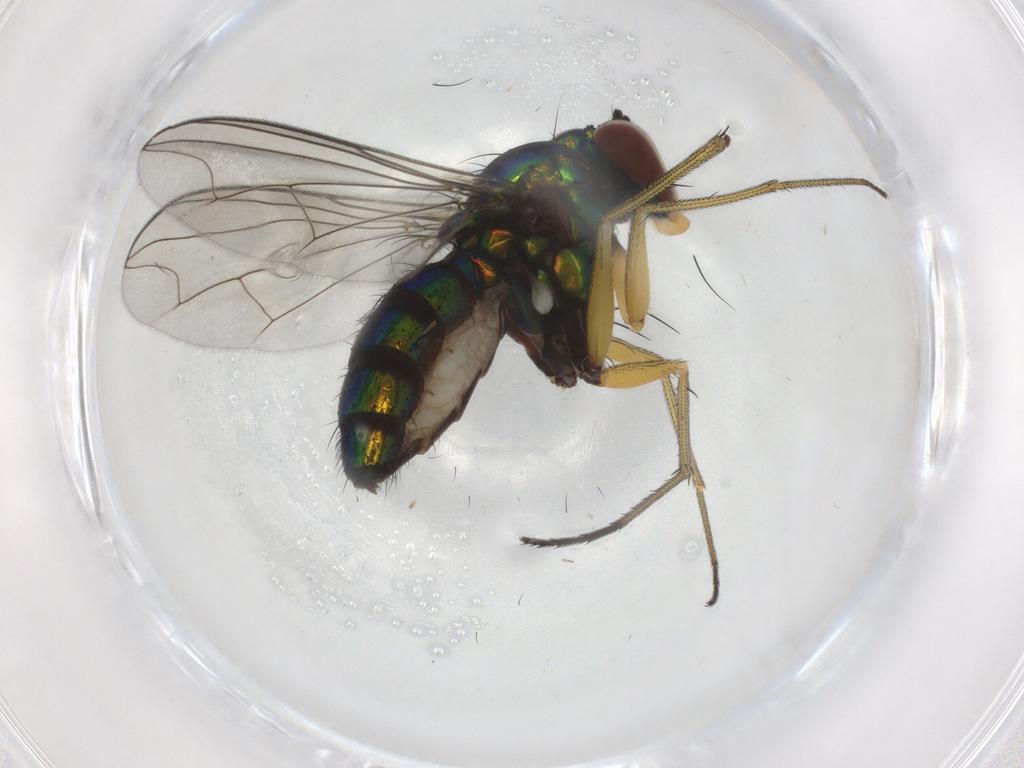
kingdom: Animalia
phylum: Arthropoda
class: Insecta
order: Diptera
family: Dolichopodidae
